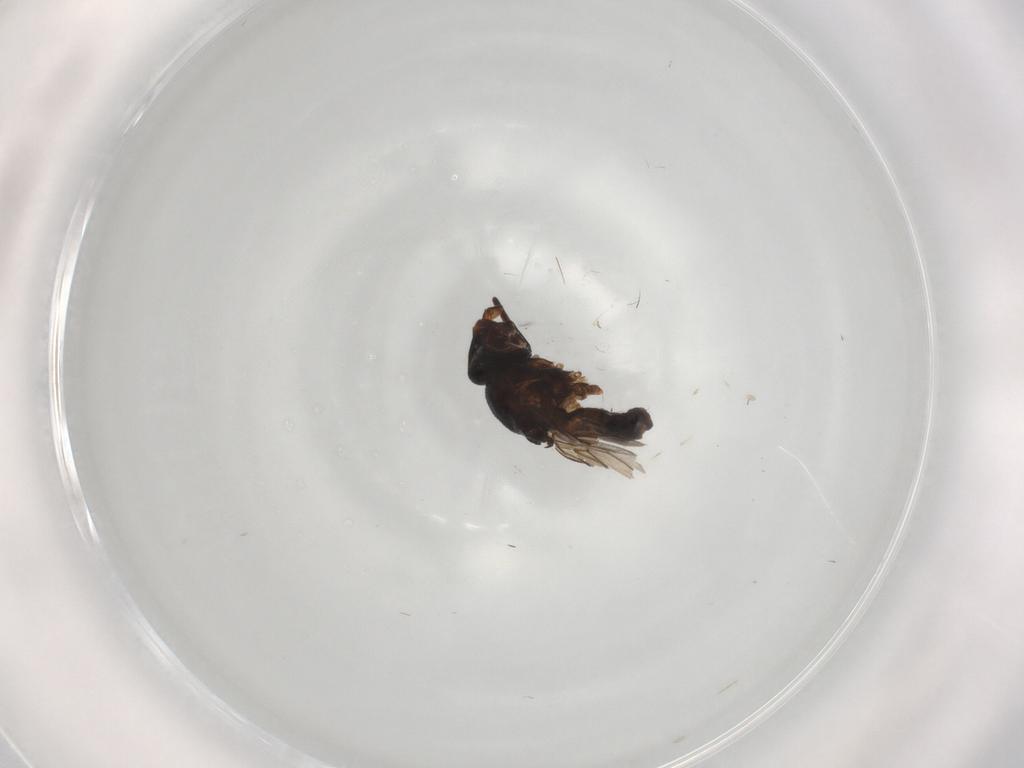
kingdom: Animalia
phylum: Arthropoda
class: Insecta
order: Diptera
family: Chloropidae
